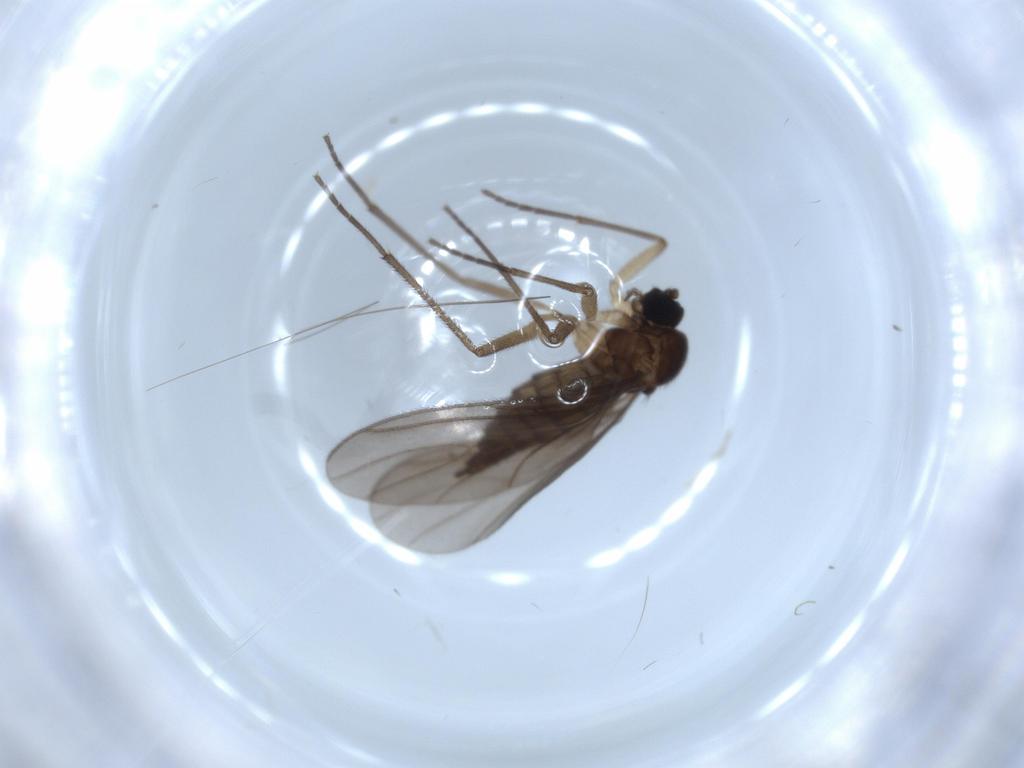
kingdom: Animalia
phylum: Arthropoda
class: Insecta
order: Diptera
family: Sciaridae
